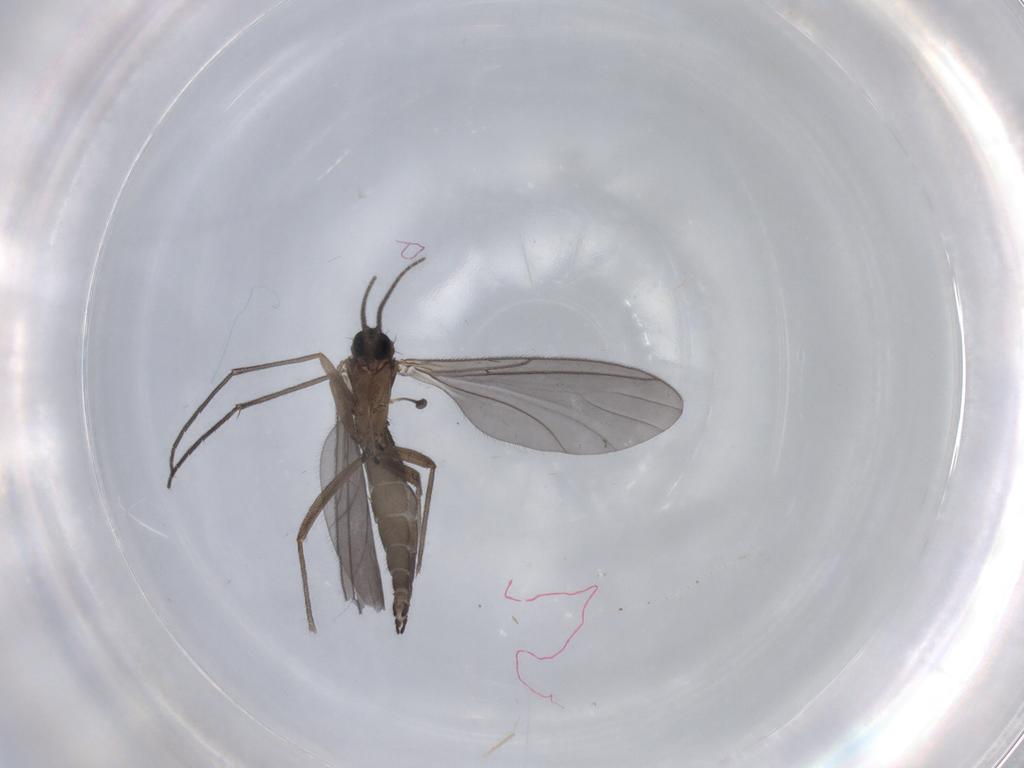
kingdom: Animalia
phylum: Arthropoda
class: Insecta
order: Diptera
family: Sciaridae
